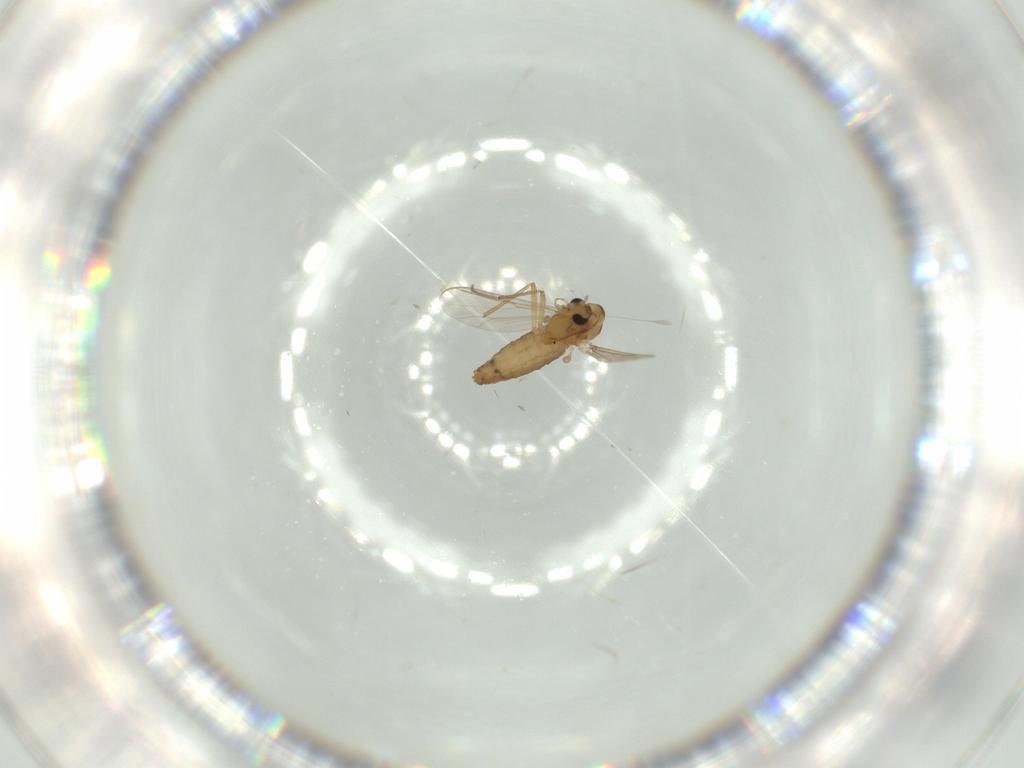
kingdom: Animalia
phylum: Arthropoda
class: Insecta
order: Diptera
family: Chironomidae
